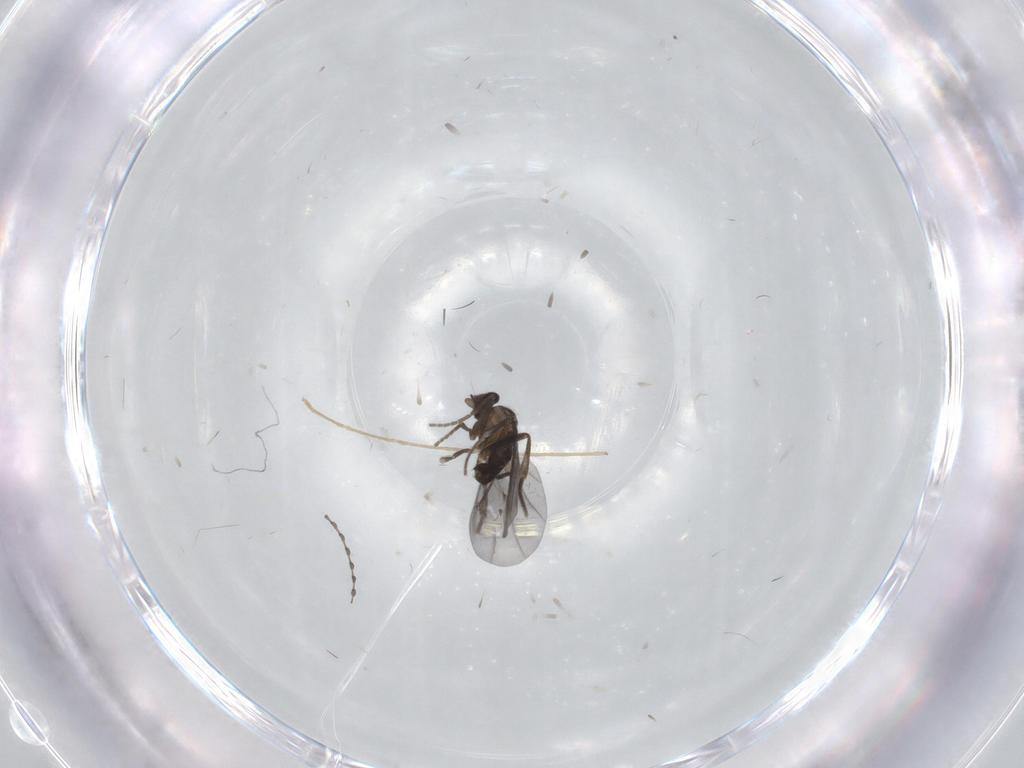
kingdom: Animalia
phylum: Arthropoda
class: Insecta
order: Diptera
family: Phoridae
